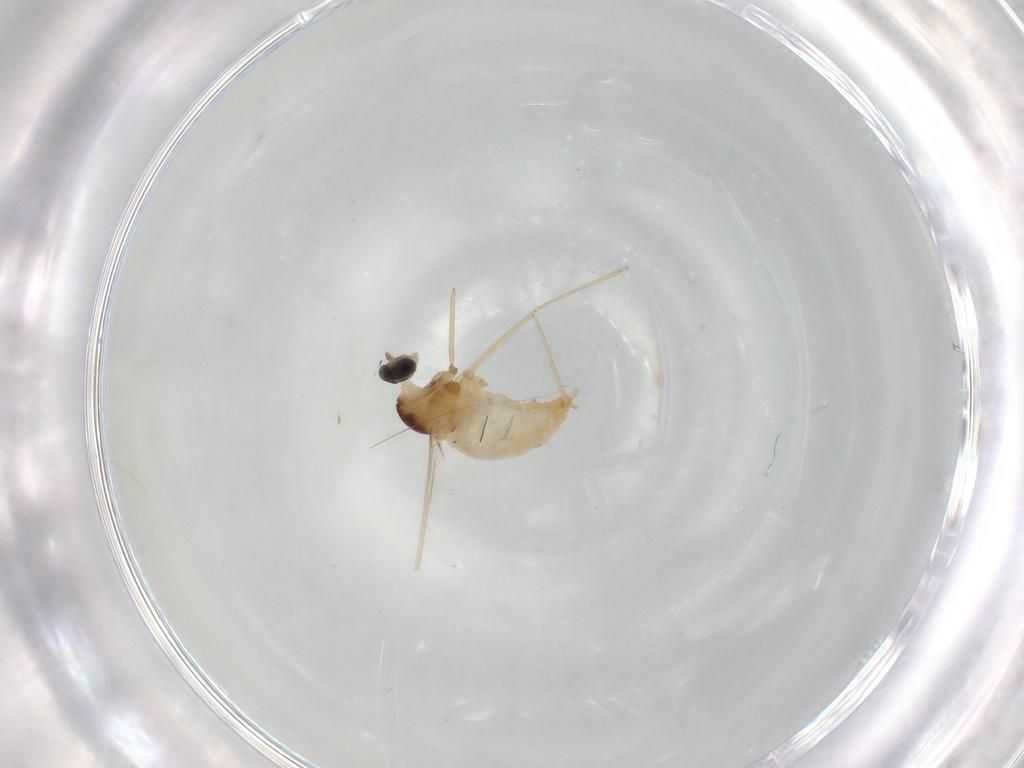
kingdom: Animalia
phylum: Arthropoda
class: Insecta
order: Diptera
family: Cecidomyiidae
